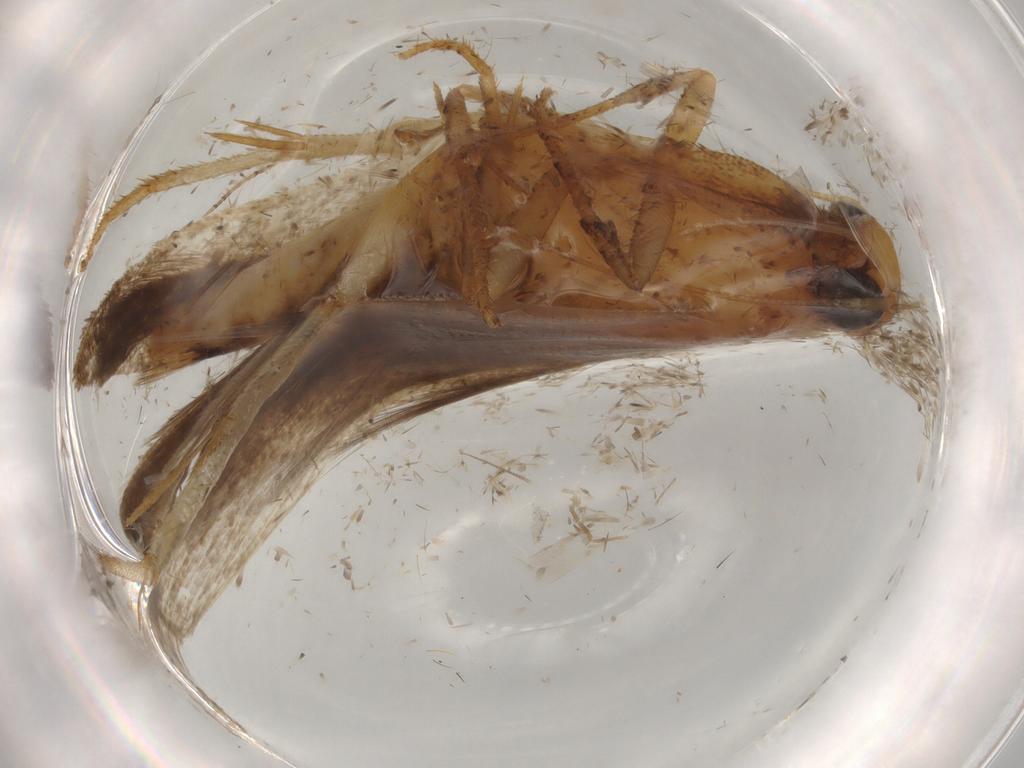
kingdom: Animalia
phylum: Arthropoda
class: Insecta
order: Lepidoptera
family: Gelechiidae
